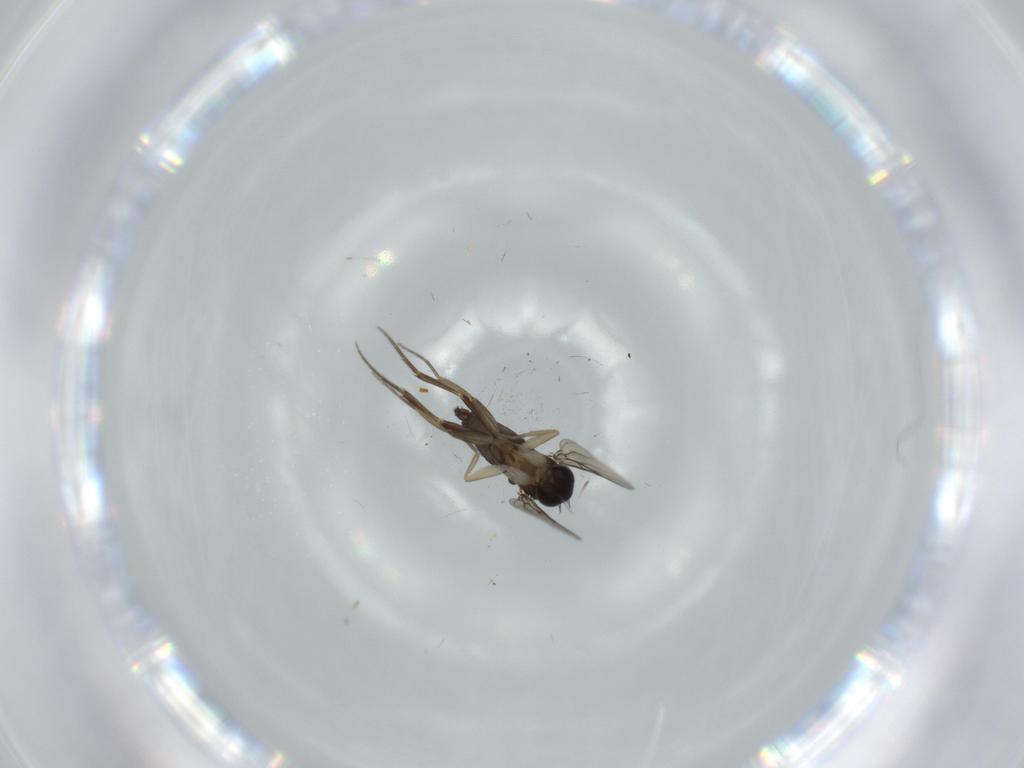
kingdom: Animalia
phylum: Arthropoda
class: Insecta
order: Diptera
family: Phoridae
